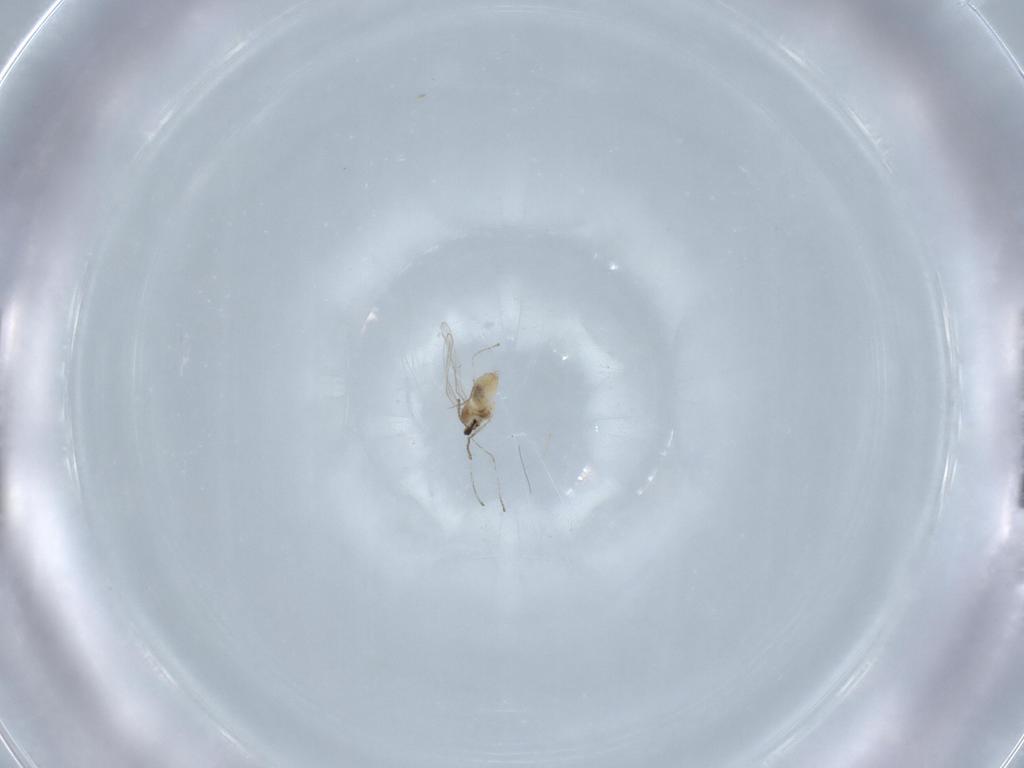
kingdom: Animalia
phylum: Arthropoda
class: Insecta
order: Diptera
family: Cecidomyiidae
